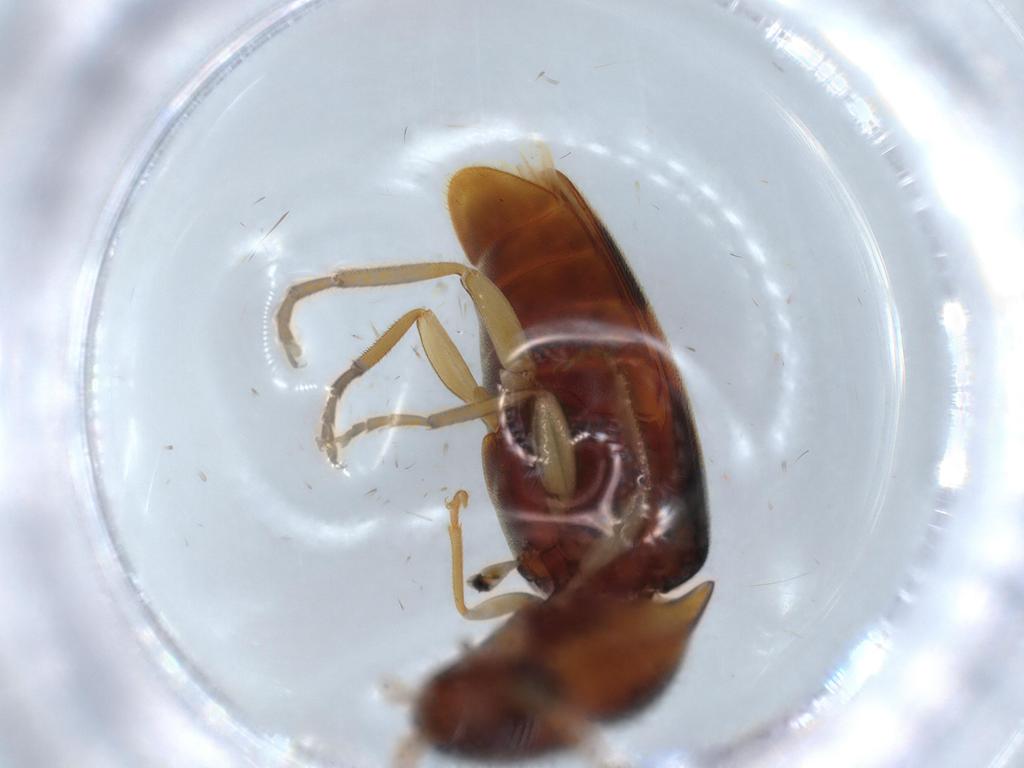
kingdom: Animalia
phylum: Arthropoda
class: Insecta
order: Coleoptera
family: Elateridae
